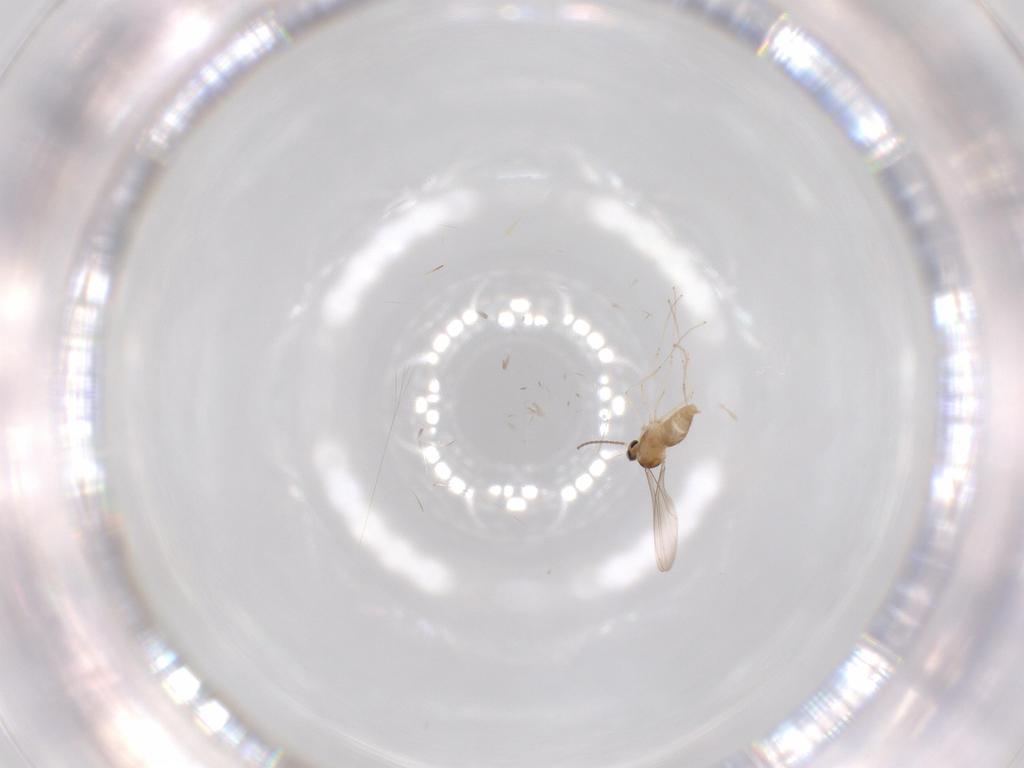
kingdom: Animalia
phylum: Arthropoda
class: Insecta
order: Diptera
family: Cecidomyiidae
